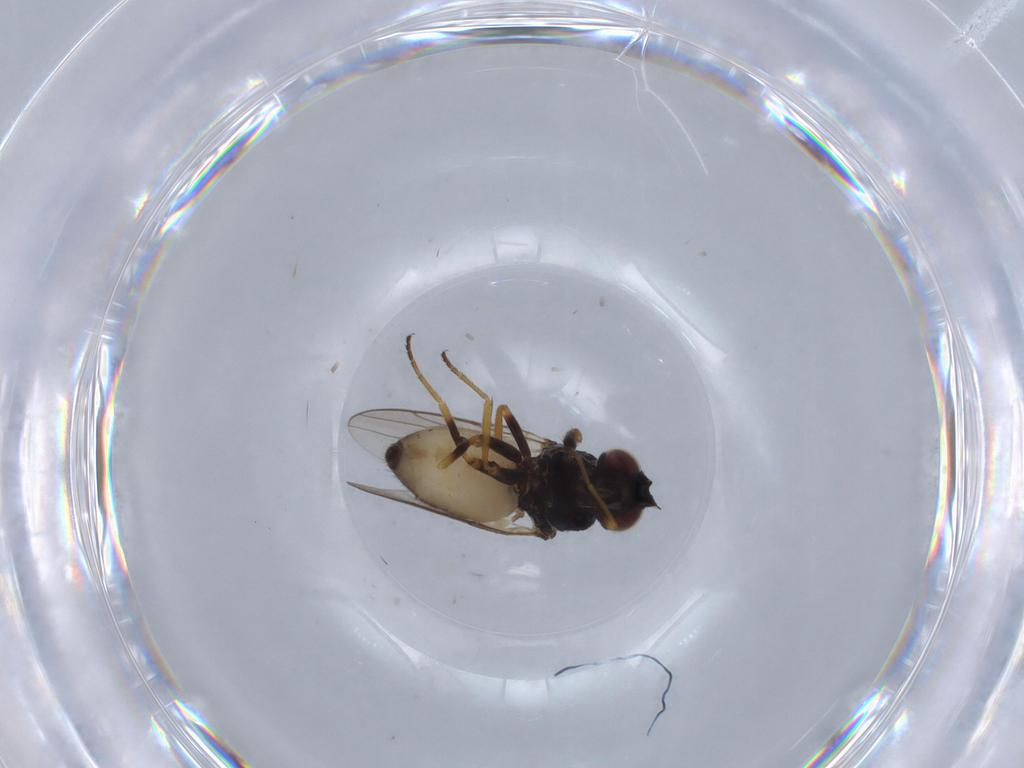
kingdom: Animalia
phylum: Arthropoda
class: Insecta
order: Diptera
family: Chloropidae
